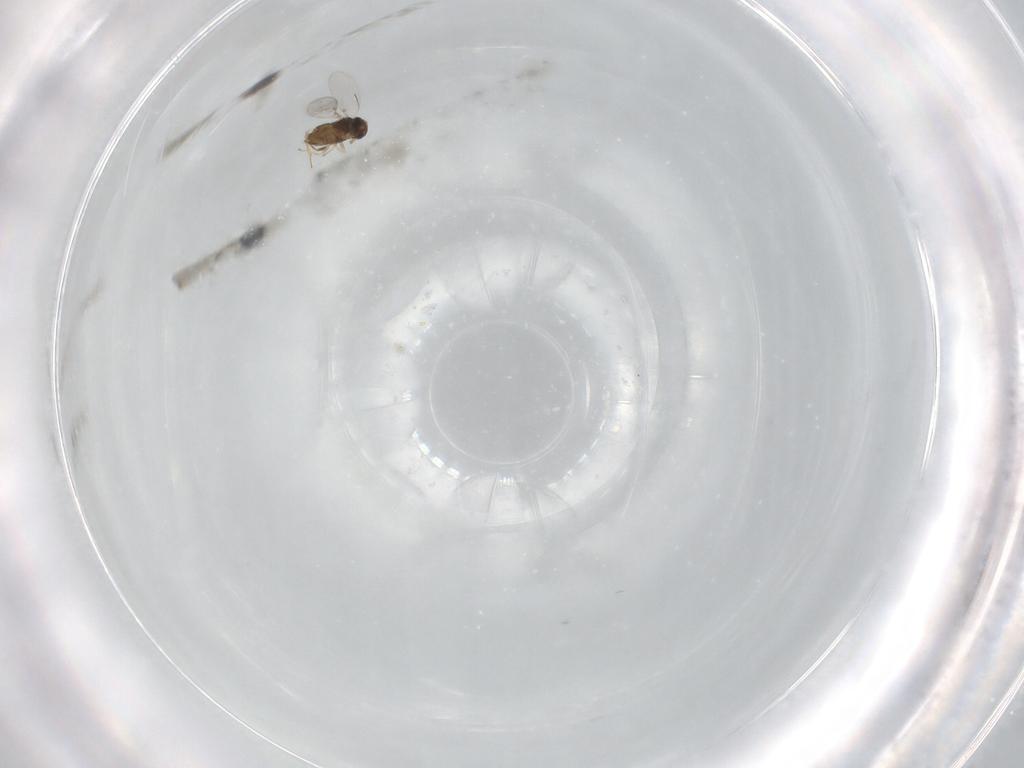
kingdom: Animalia
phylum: Arthropoda
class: Insecta
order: Hymenoptera
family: Encyrtidae
